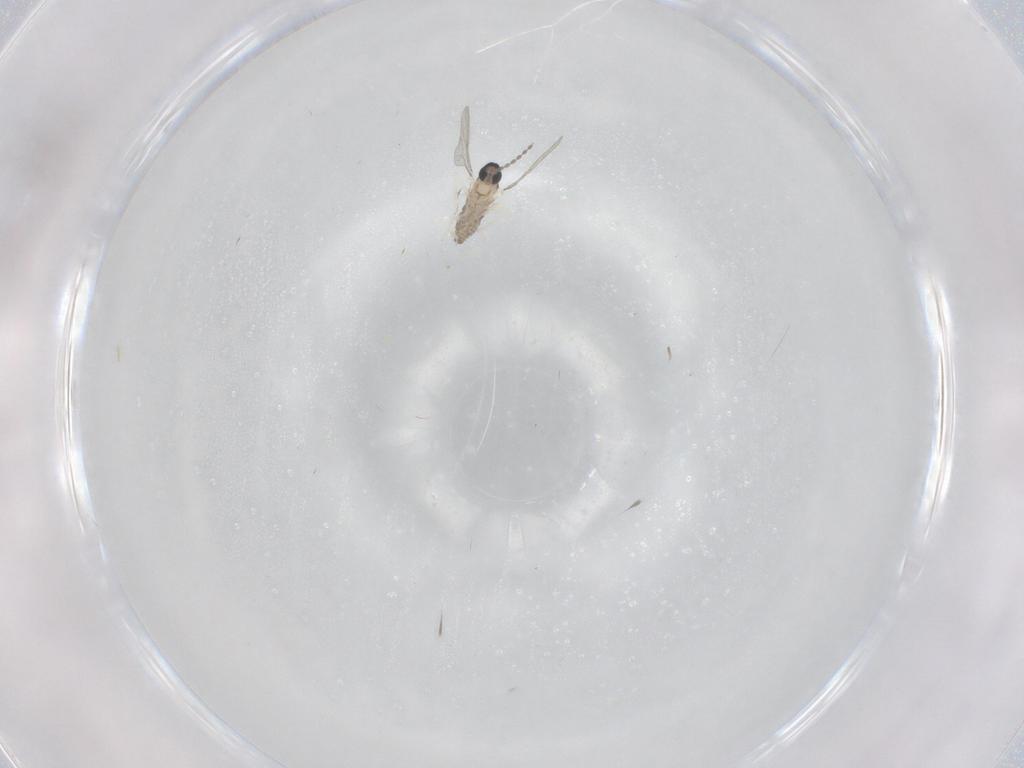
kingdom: Animalia
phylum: Arthropoda
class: Insecta
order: Diptera
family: Cecidomyiidae
